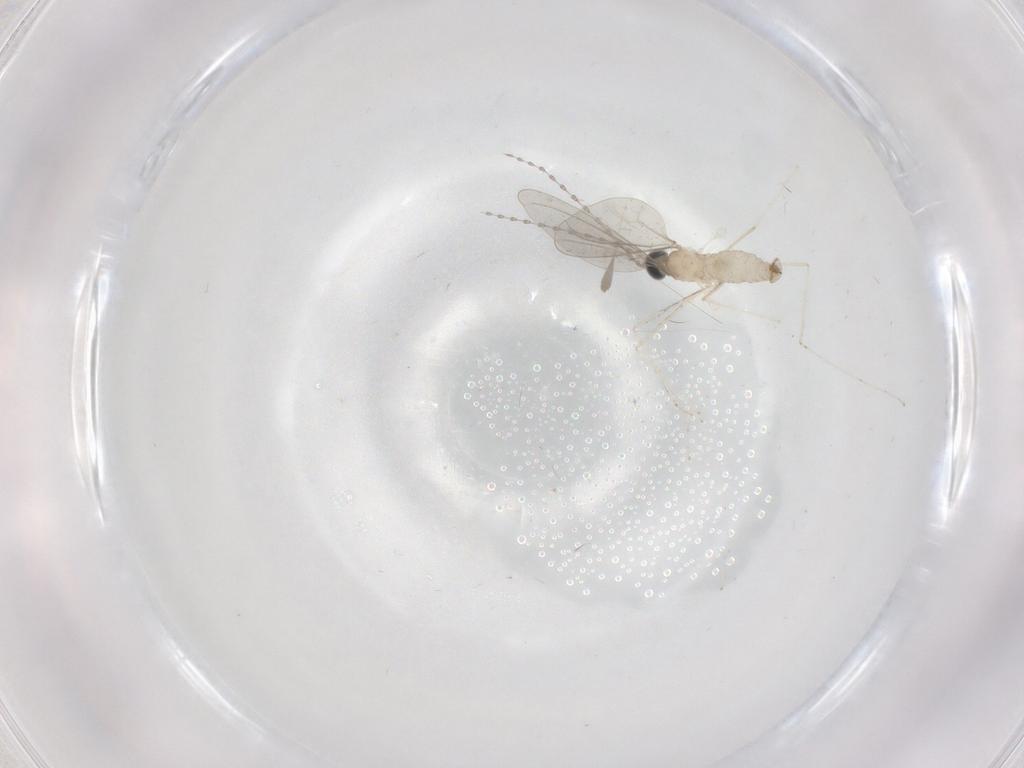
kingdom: Animalia
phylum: Arthropoda
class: Insecta
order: Diptera
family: Cecidomyiidae
